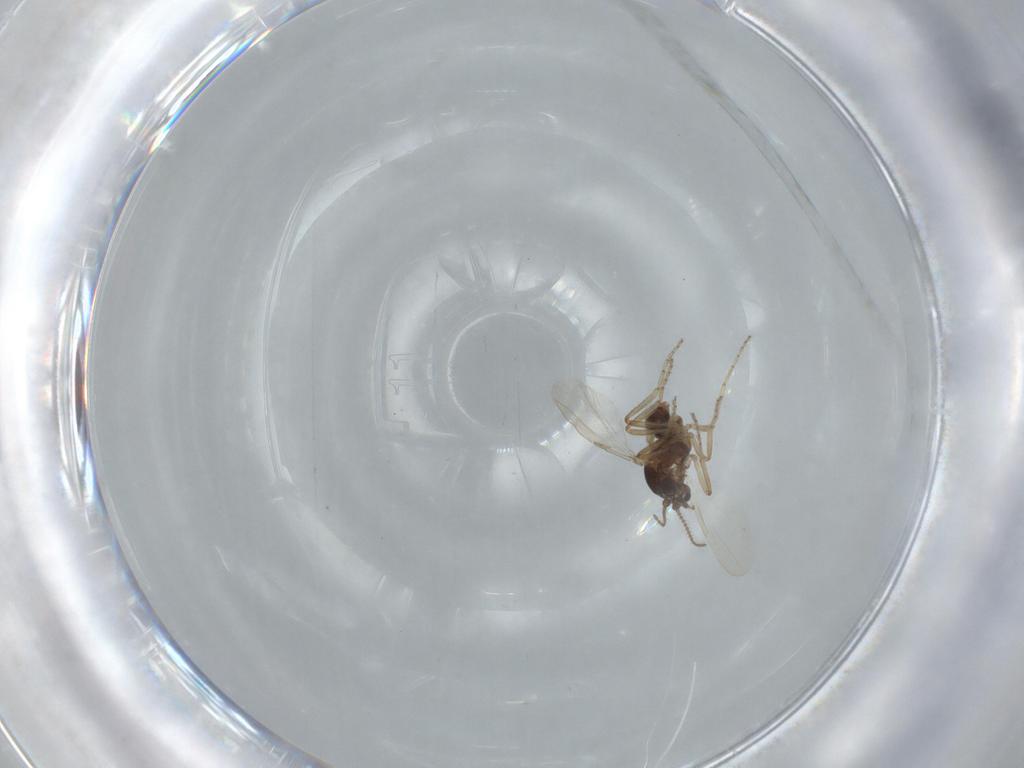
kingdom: Animalia
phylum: Arthropoda
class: Insecta
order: Diptera
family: Ceratopogonidae
